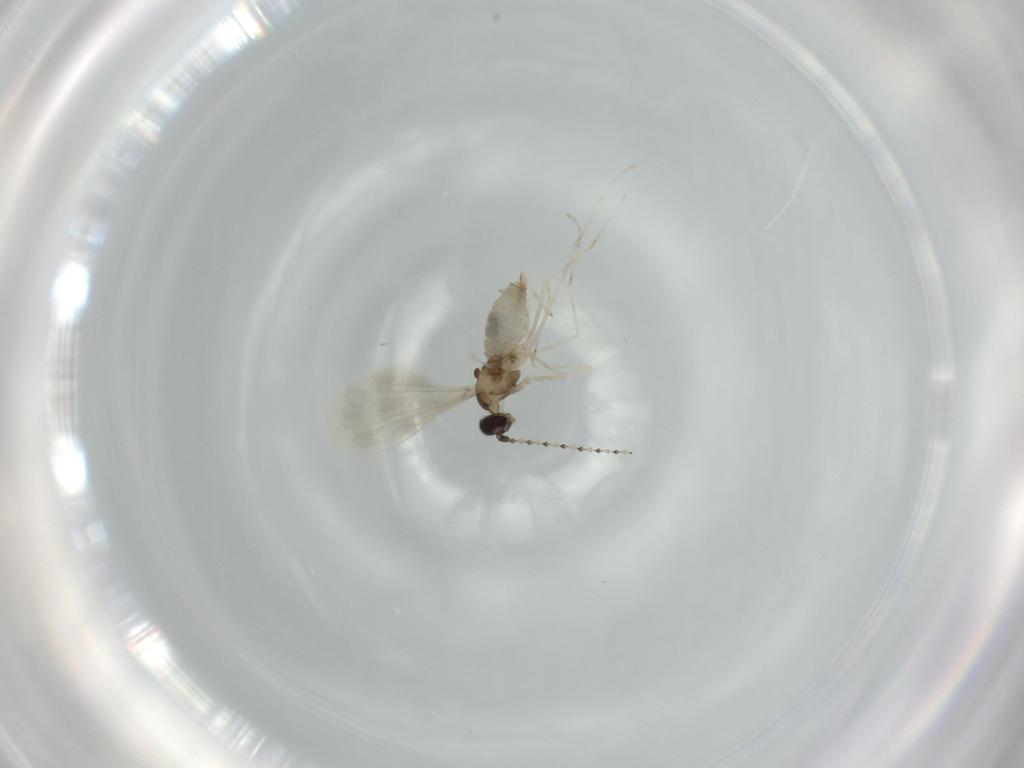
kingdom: Animalia
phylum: Arthropoda
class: Insecta
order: Diptera
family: Cecidomyiidae
